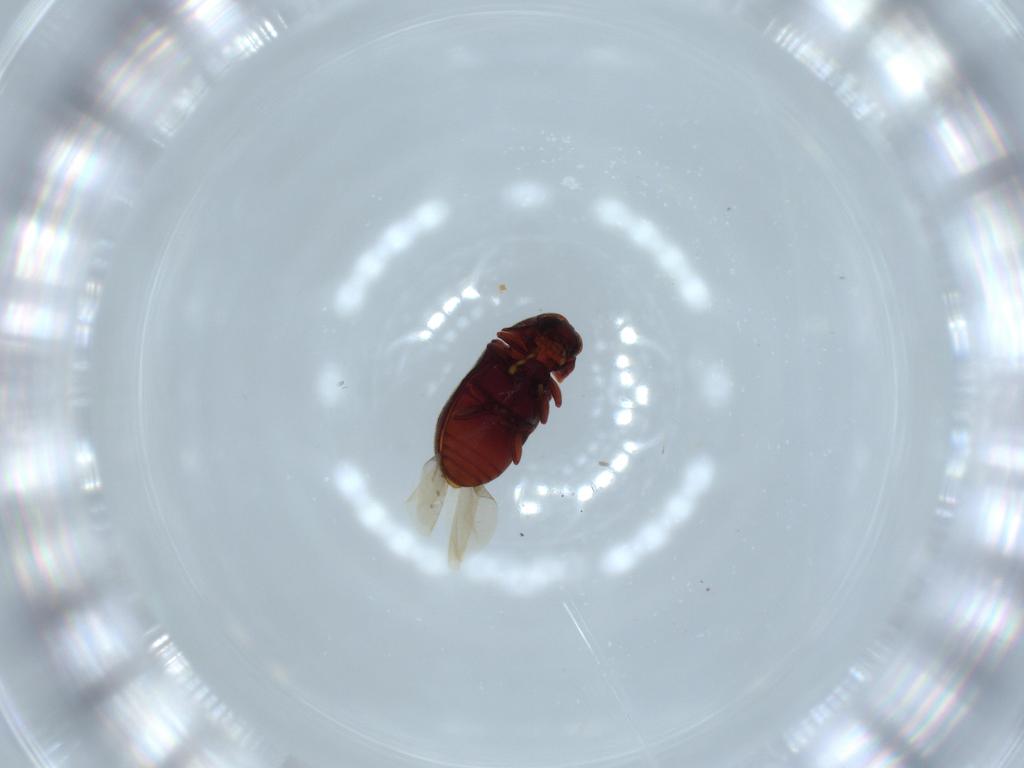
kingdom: Animalia
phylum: Arthropoda
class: Insecta
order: Coleoptera
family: Ptinidae
